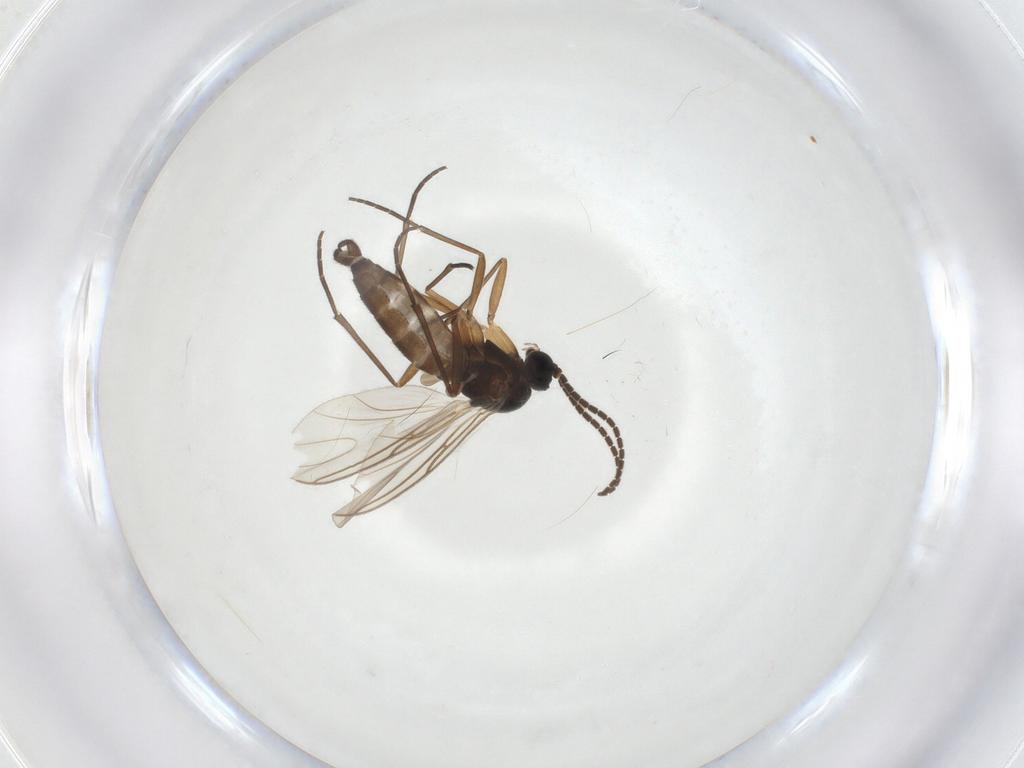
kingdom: Animalia
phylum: Arthropoda
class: Insecta
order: Diptera
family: Sciaridae
